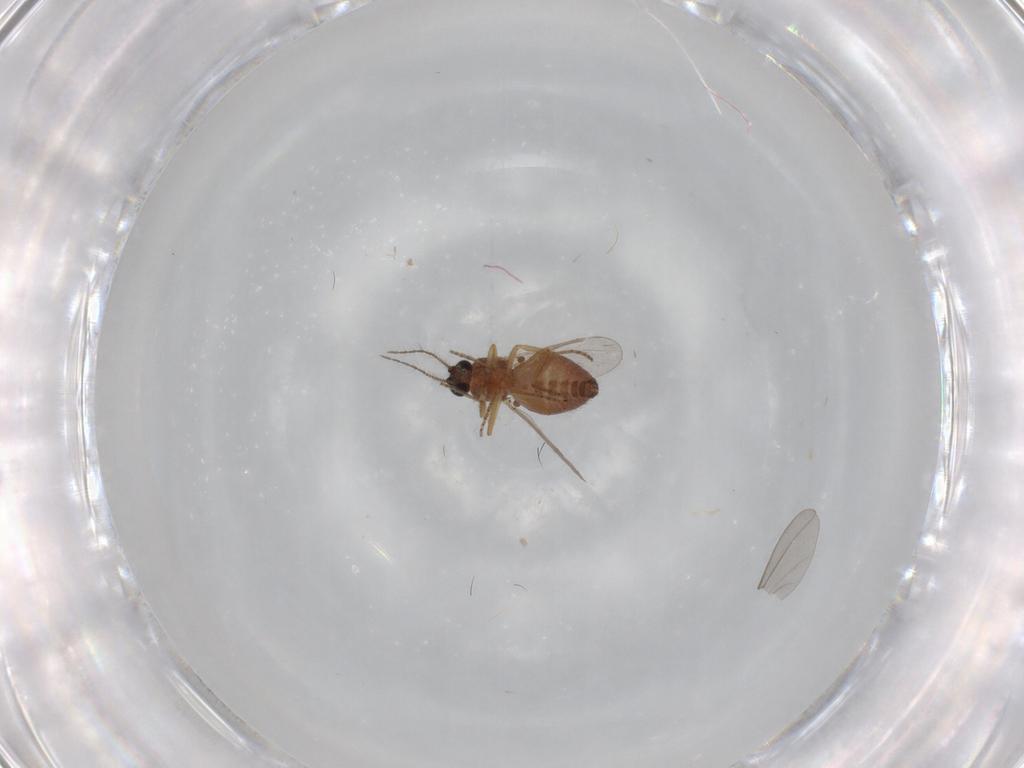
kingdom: Animalia
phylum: Arthropoda
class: Insecta
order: Diptera
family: Ceratopogonidae
